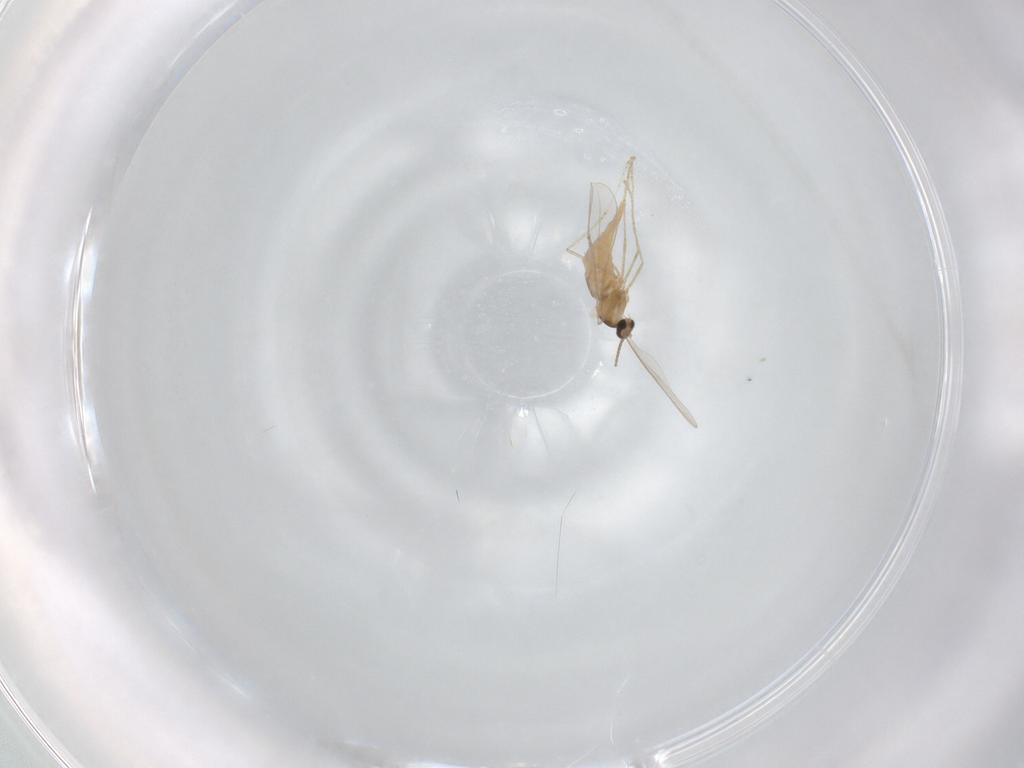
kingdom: Animalia
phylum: Arthropoda
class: Insecta
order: Diptera
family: Cecidomyiidae
